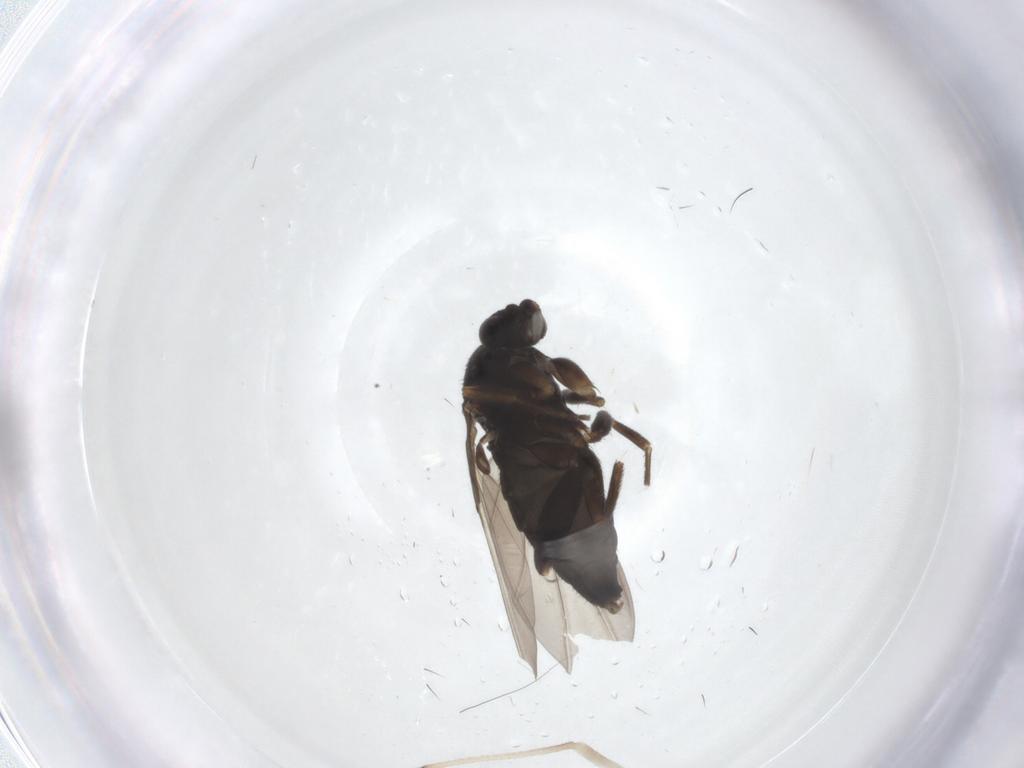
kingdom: Animalia
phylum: Arthropoda
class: Insecta
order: Diptera
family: Phoridae
